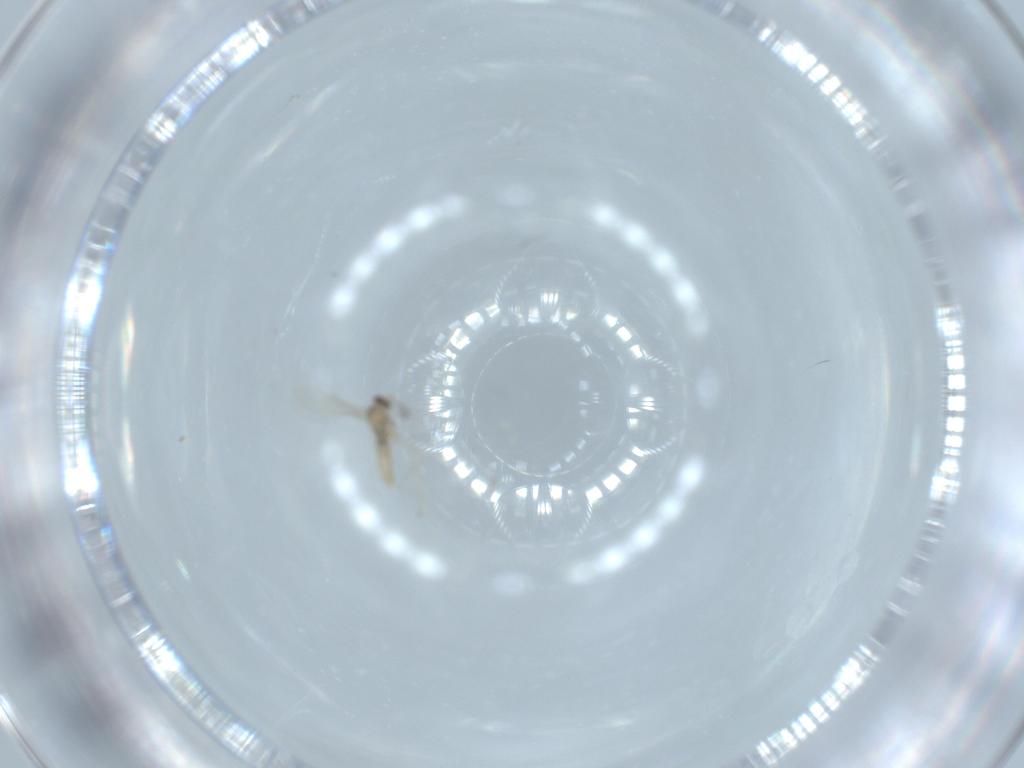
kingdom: Animalia
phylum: Arthropoda
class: Insecta
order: Diptera
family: Cecidomyiidae
